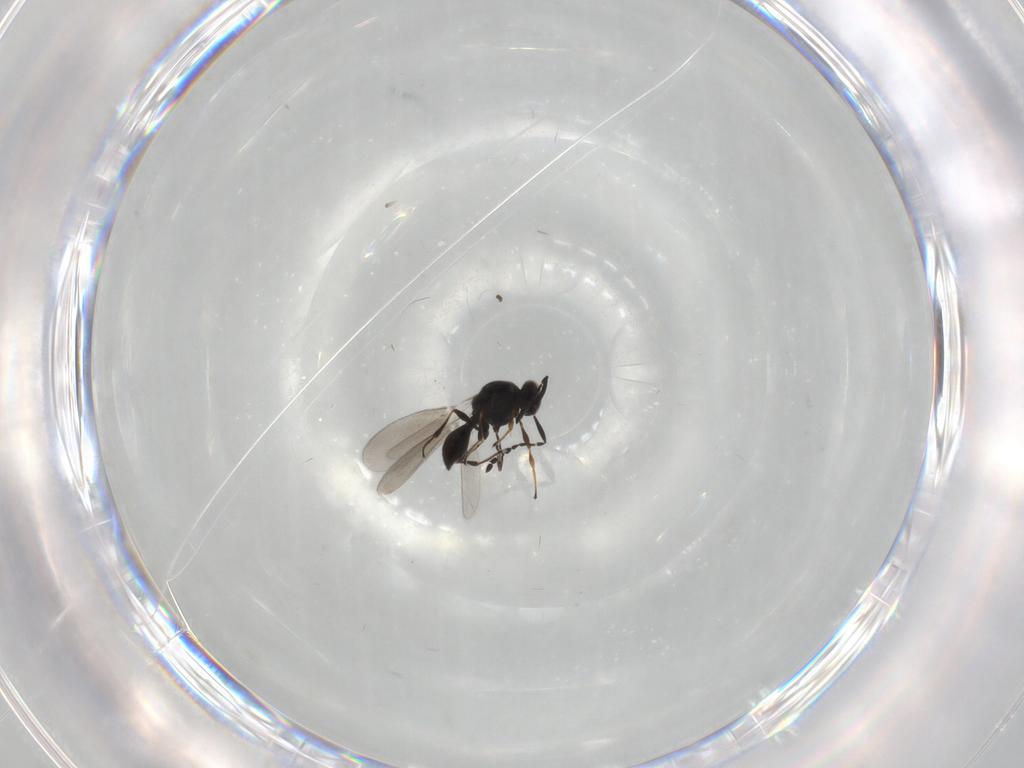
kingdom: Animalia
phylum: Arthropoda
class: Insecta
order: Hymenoptera
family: Platygastridae
